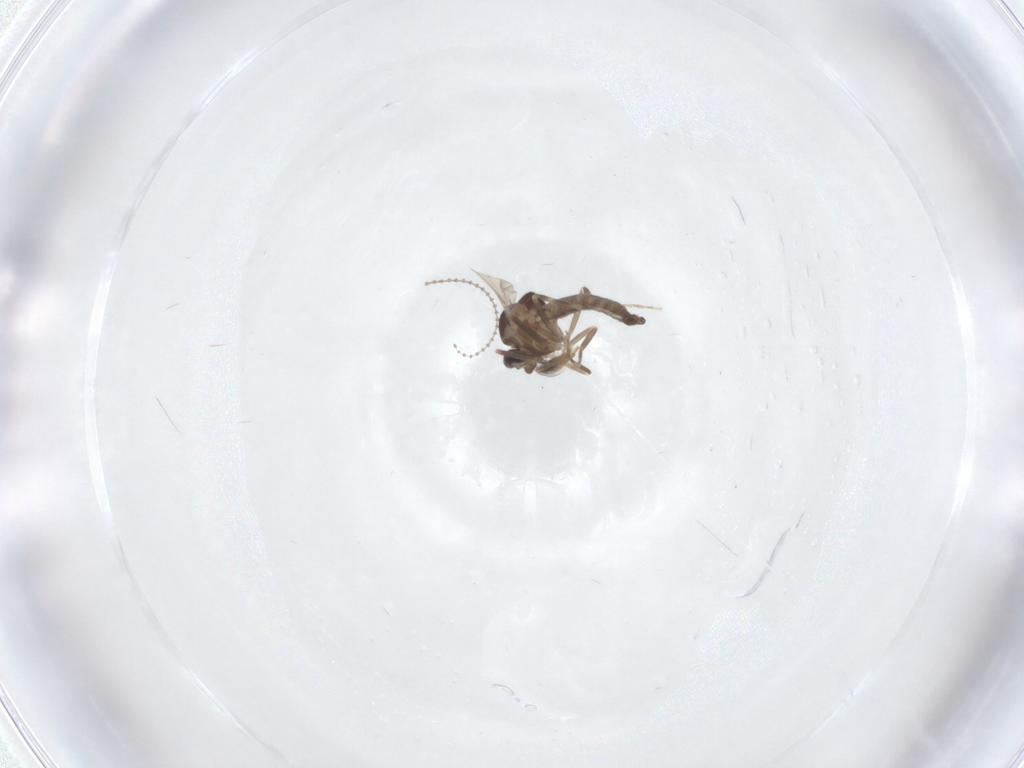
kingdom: Animalia
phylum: Arthropoda
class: Insecta
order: Diptera
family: Ceratopogonidae
